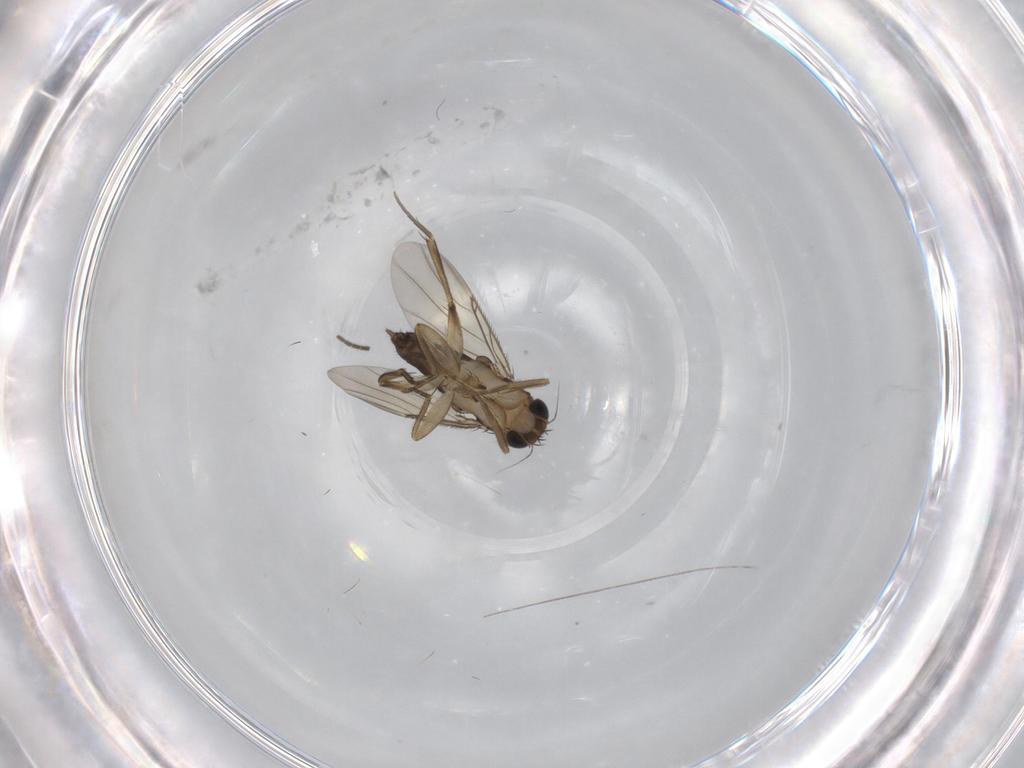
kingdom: Animalia
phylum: Arthropoda
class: Insecta
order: Diptera
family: Phoridae
